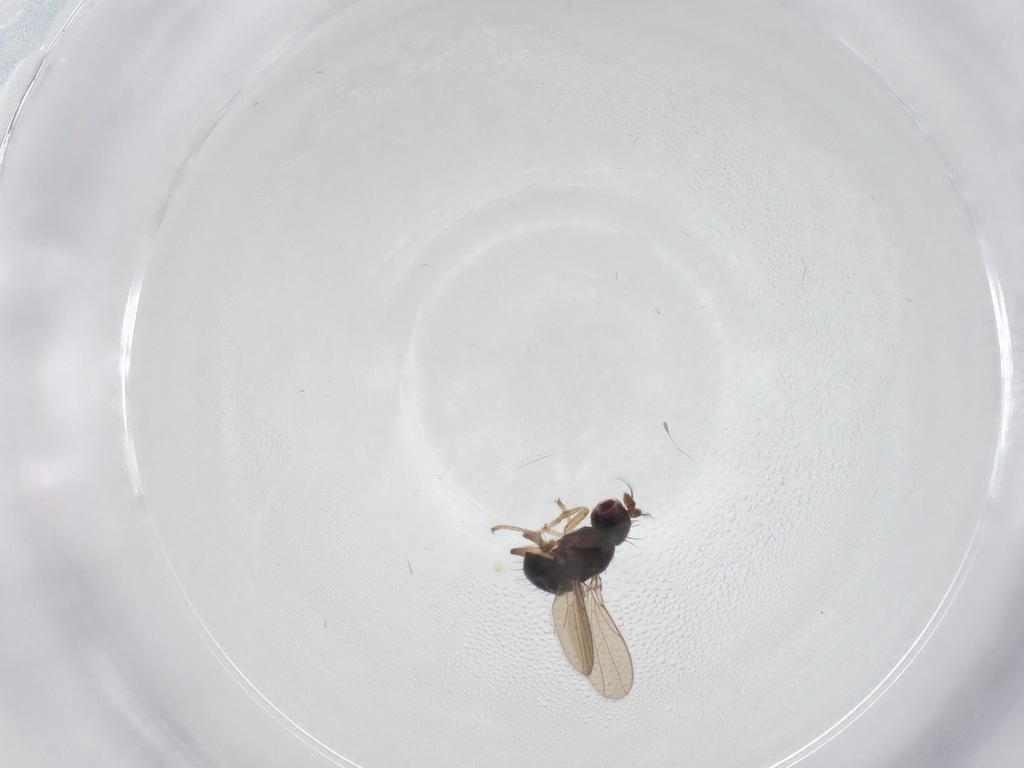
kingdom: Animalia
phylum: Arthropoda
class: Insecta
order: Diptera
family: Ephydridae
